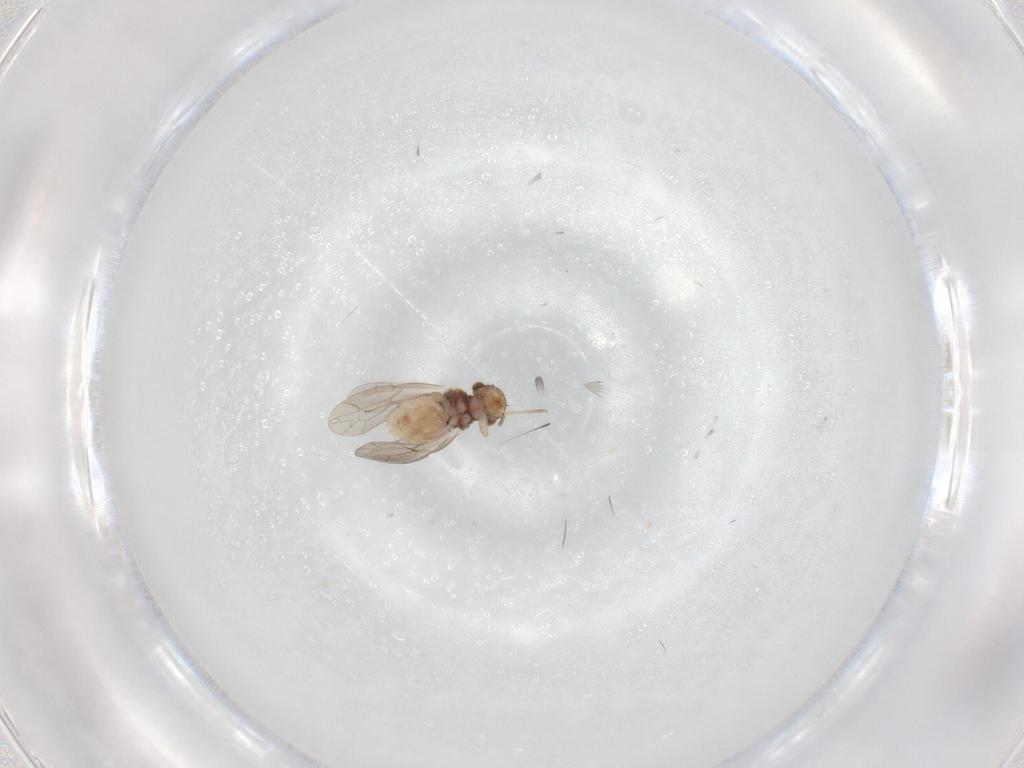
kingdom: Animalia
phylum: Arthropoda
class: Insecta
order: Psocodea
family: Peripsocidae
